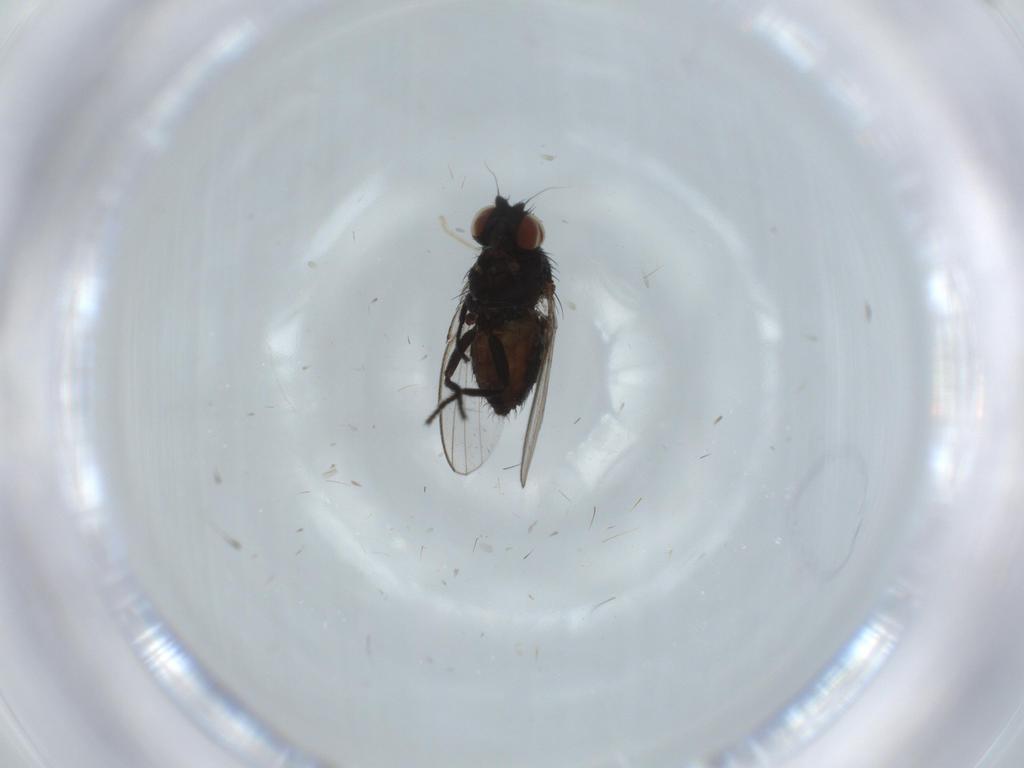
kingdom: Animalia
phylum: Arthropoda
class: Insecta
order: Diptera
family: Milichiidae
